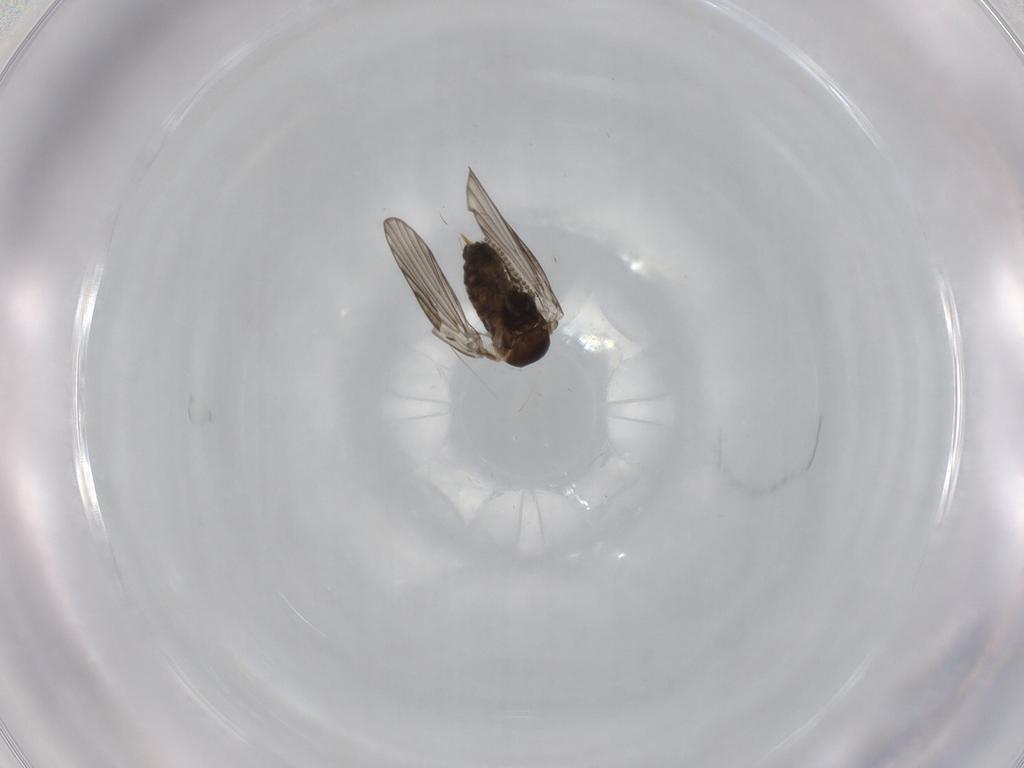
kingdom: Animalia
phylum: Arthropoda
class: Insecta
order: Diptera
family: Psychodidae
